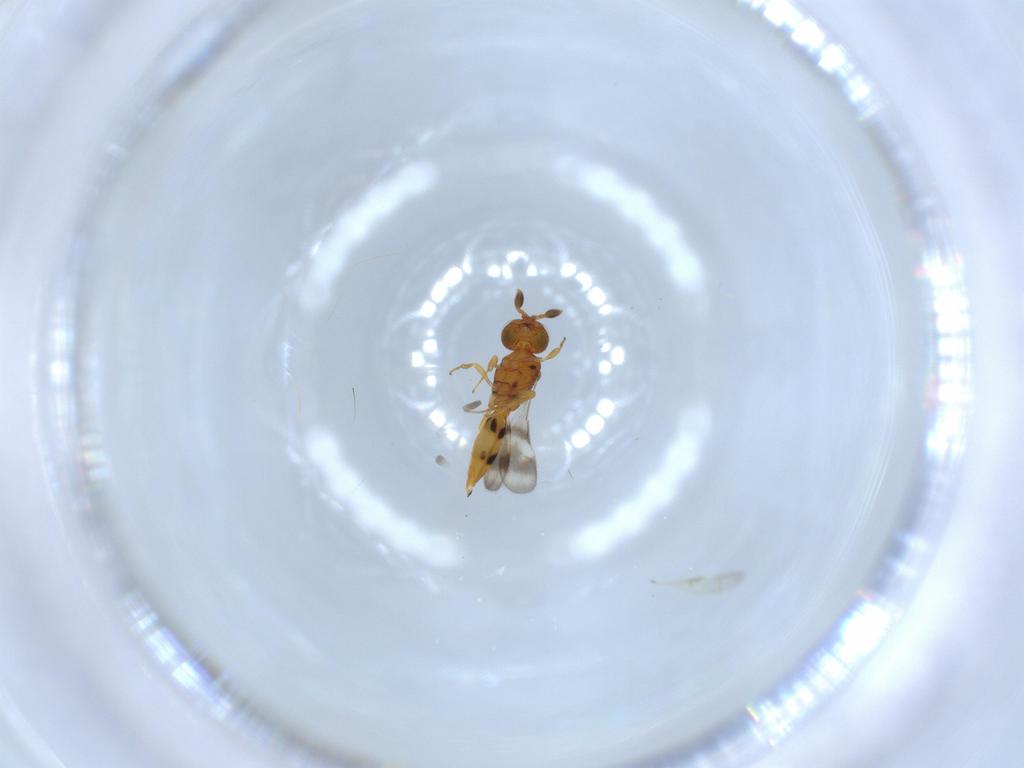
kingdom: Animalia
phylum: Arthropoda
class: Insecta
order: Hymenoptera
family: Scelionidae
